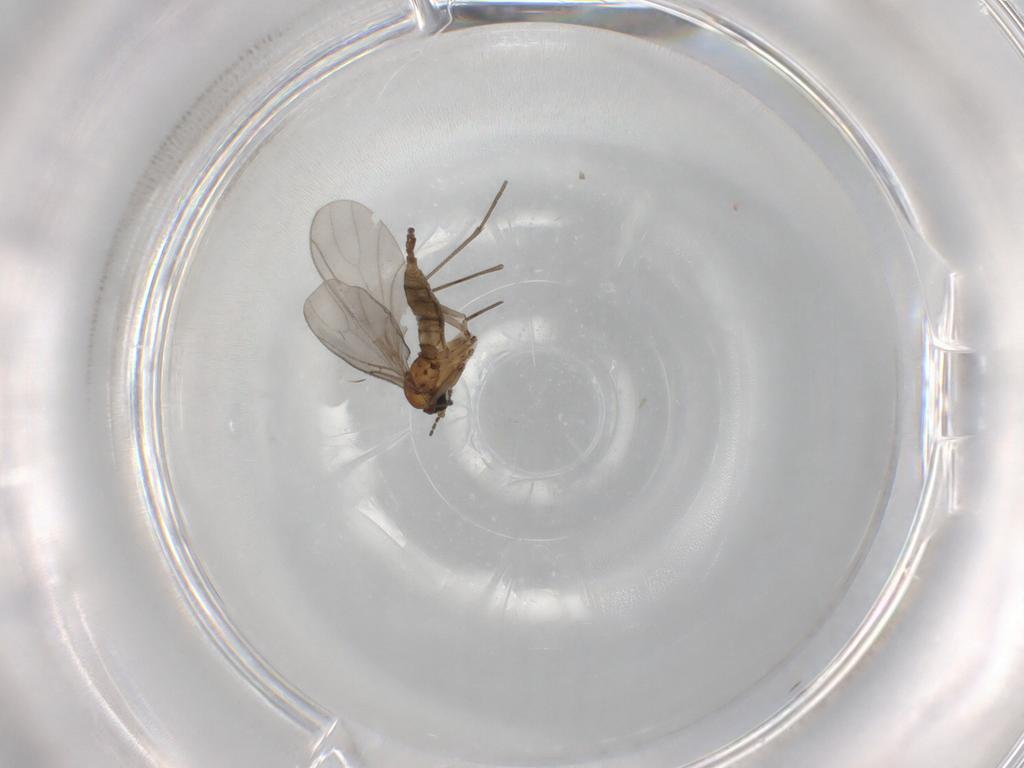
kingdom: Animalia
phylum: Arthropoda
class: Insecta
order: Diptera
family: Sciaridae
